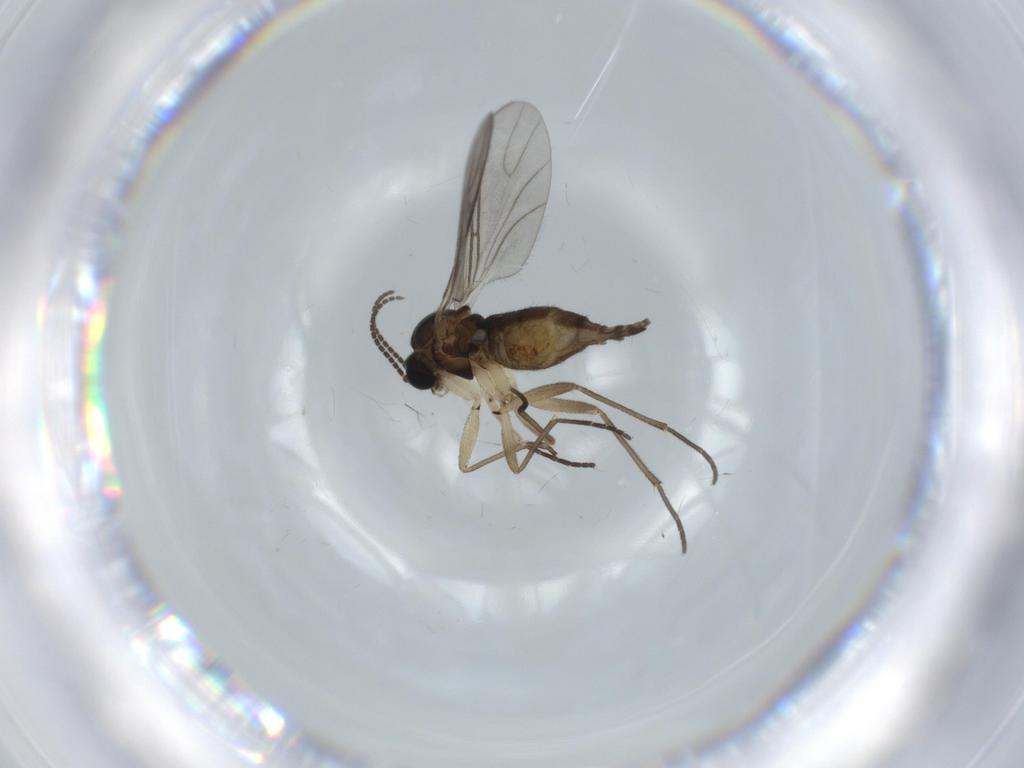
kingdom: Animalia
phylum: Arthropoda
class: Insecta
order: Diptera
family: Sciaridae
